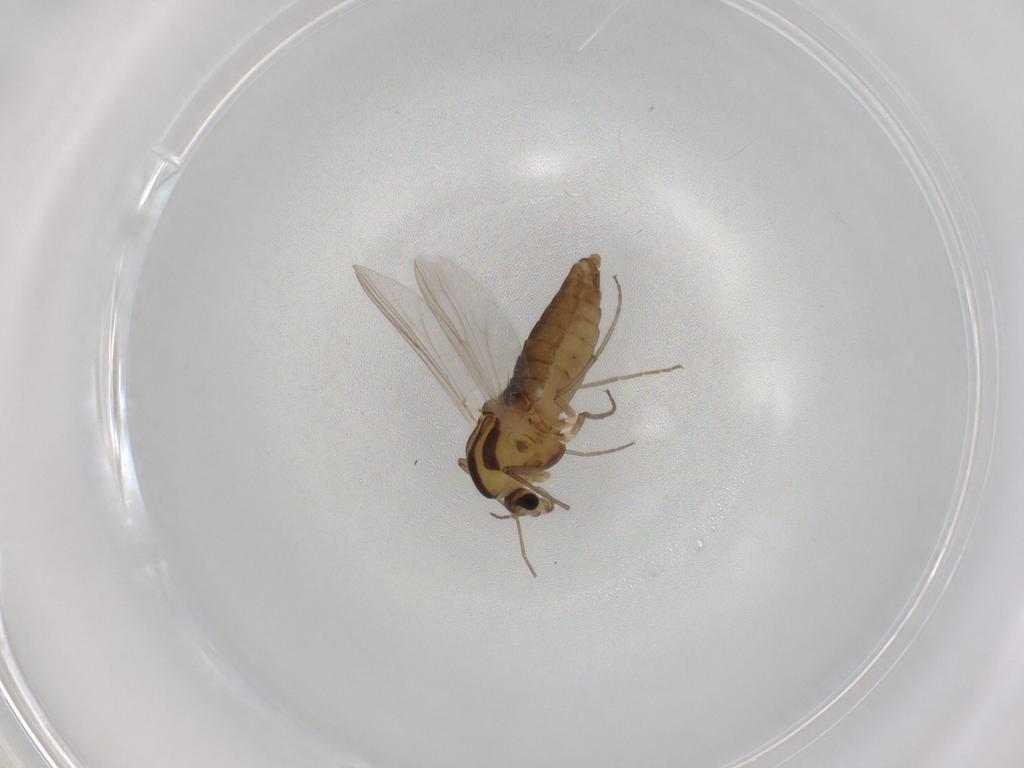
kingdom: Animalia
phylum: Arthropoda
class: Insecta
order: Diptera
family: Chironomidae
